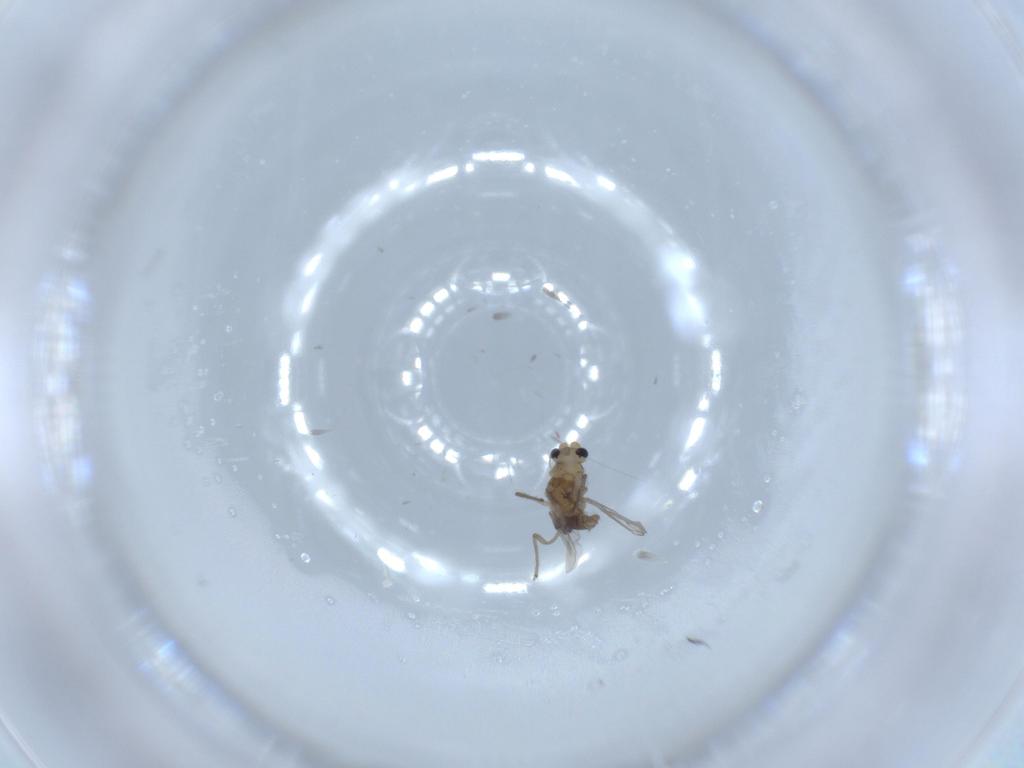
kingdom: Animalia
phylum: Arthropoda
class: Insecta
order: Diptera
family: Chironomidae
